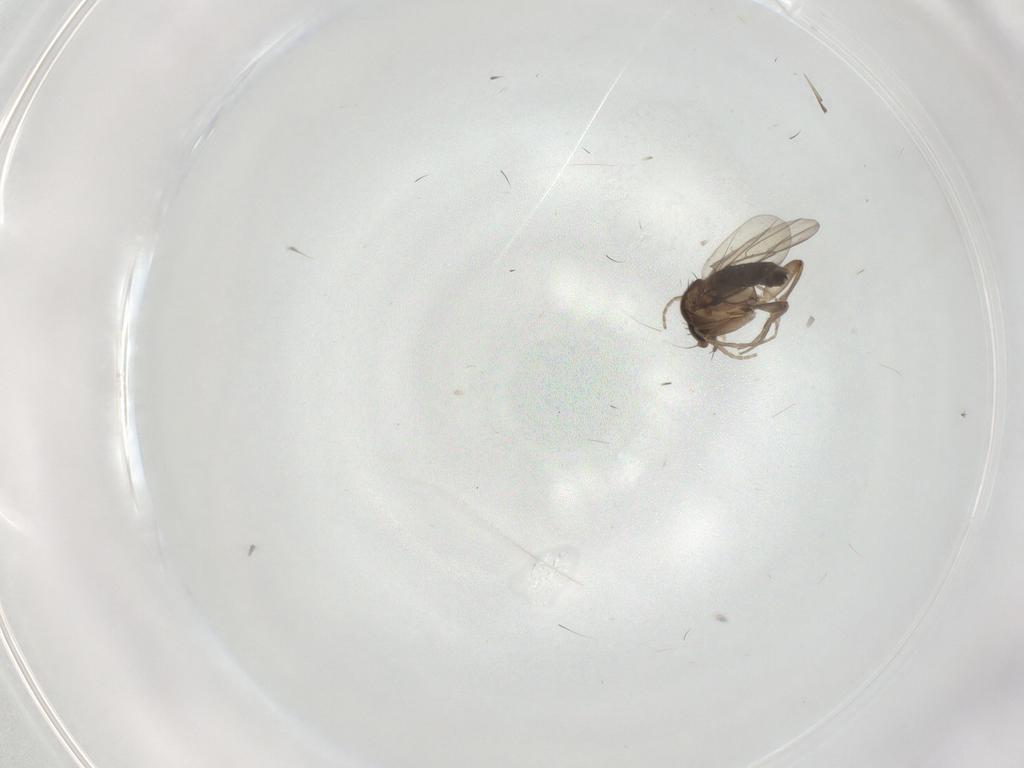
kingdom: Animalia
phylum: Arthropoda
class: Insecta
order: Diptera
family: Phoridae
